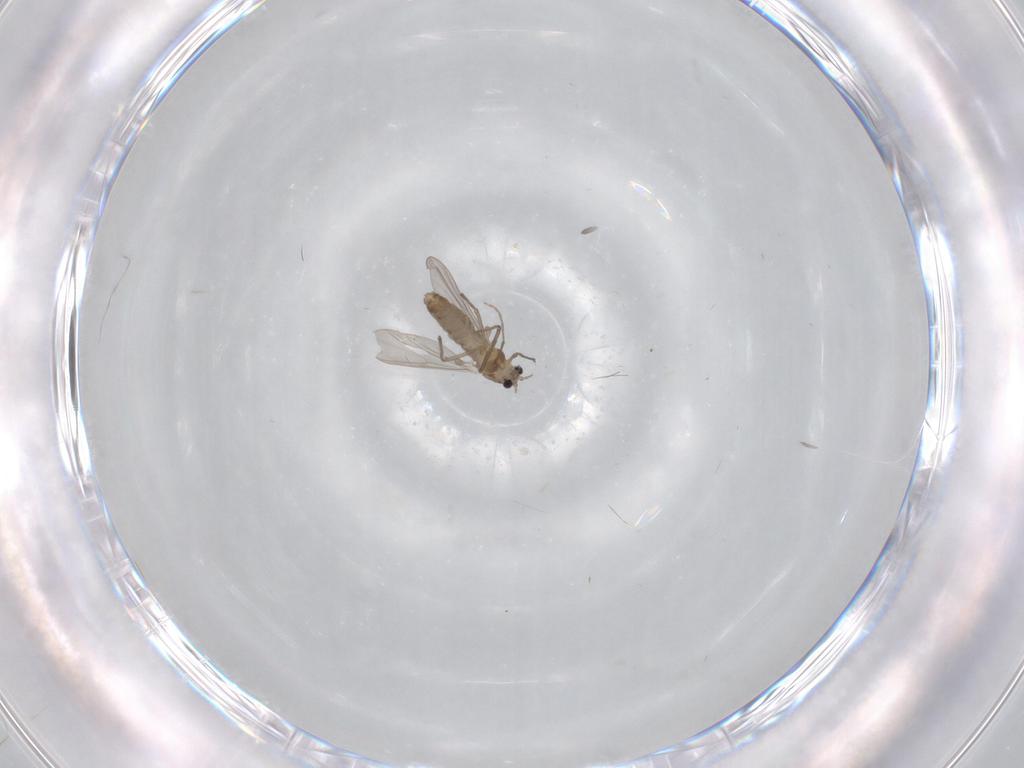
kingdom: Animalia
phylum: Arthropoda
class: Insecta
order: Diptera
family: Chironomidae
